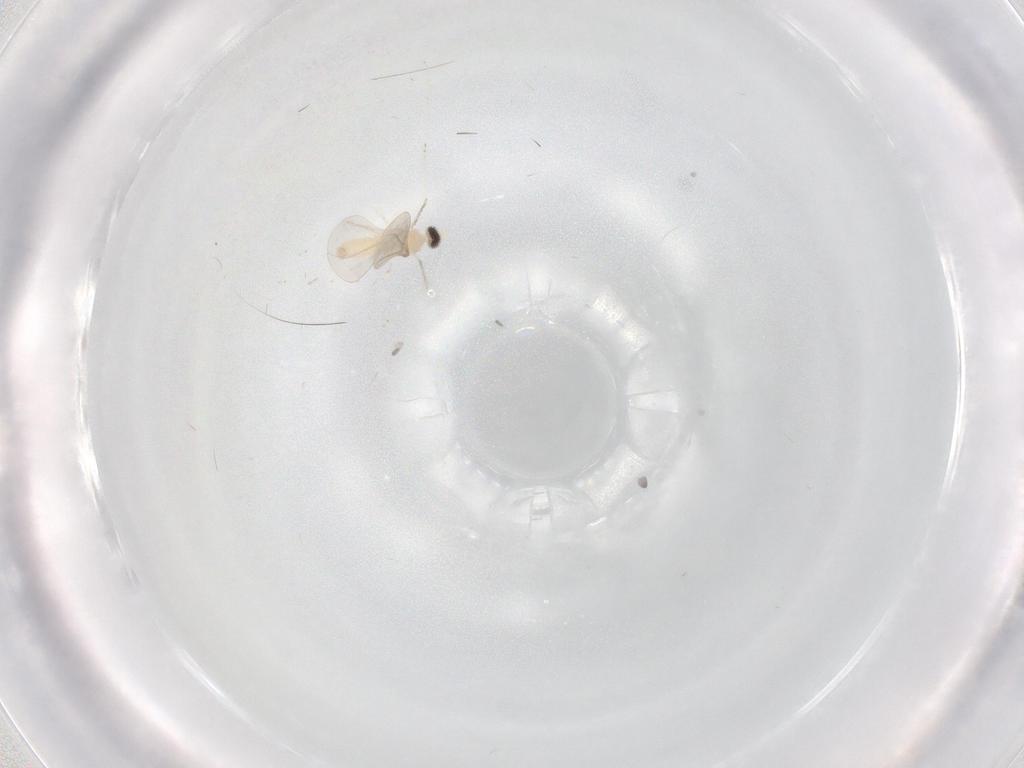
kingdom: Animalia
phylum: Arthropoda
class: Insecta
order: Diptera
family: Cecidomyiidae
